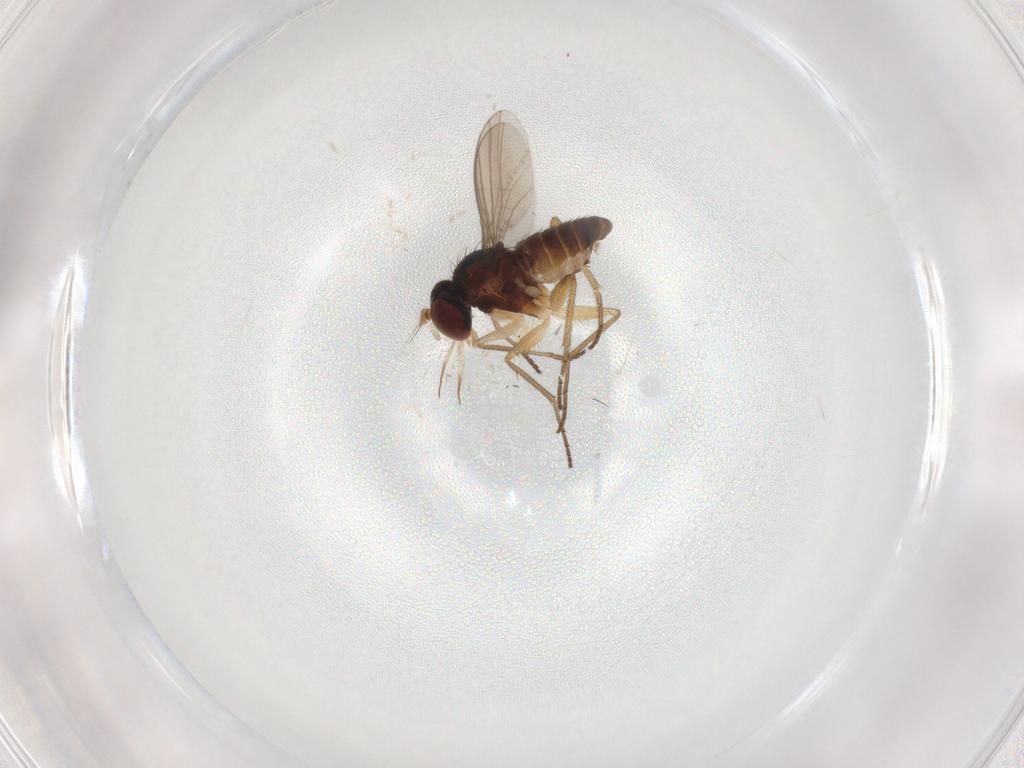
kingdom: Animalia
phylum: Arthropoda
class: Insecta
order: Diptera
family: Dolichopodidae
